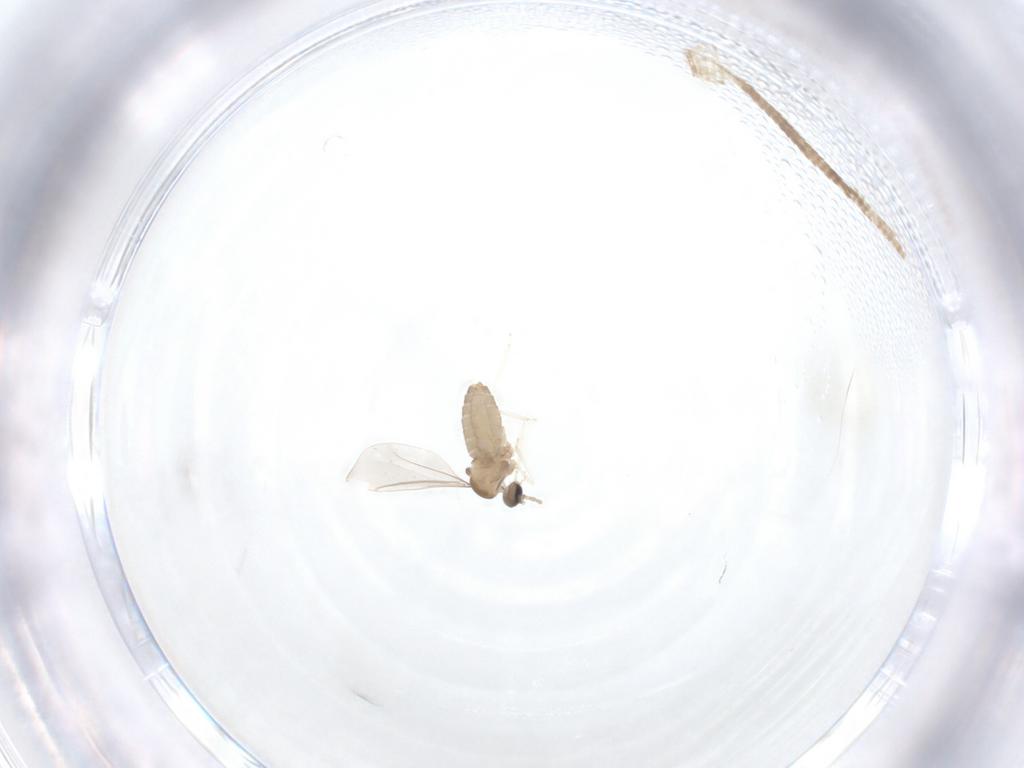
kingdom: Animalia
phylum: Arthropoda
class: Insecta
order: Diptera
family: Cecidomyiidae
